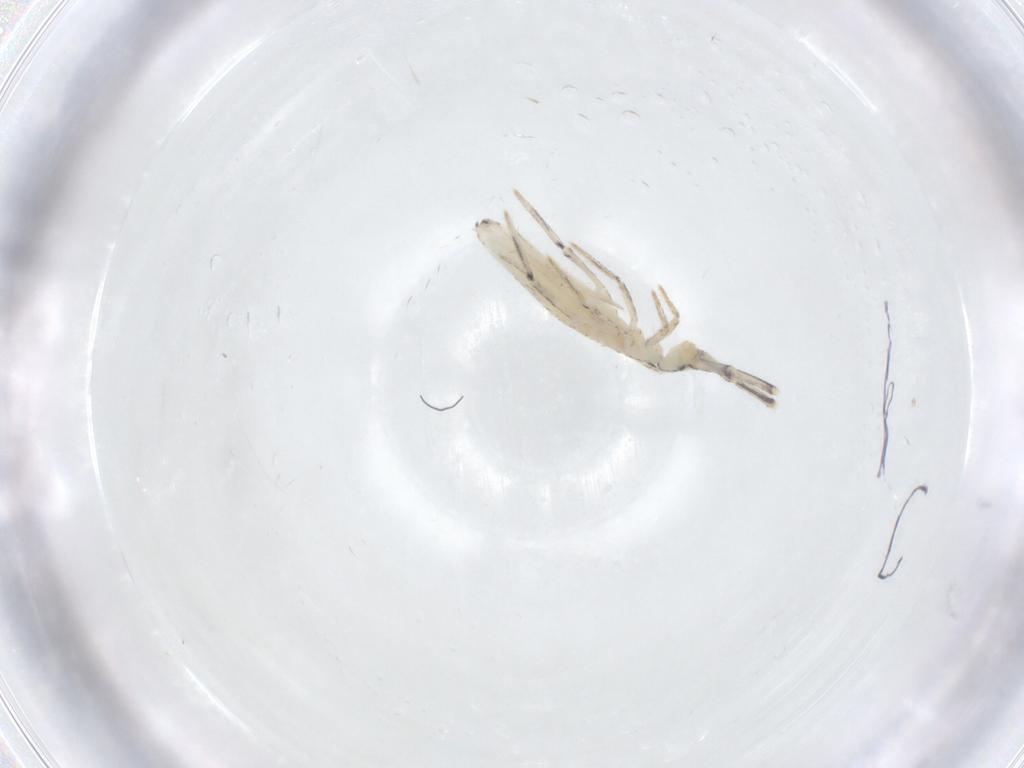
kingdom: Animalia
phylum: Arthropoda
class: Collembola
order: Entomobryomorpha
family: Entomobryidae
